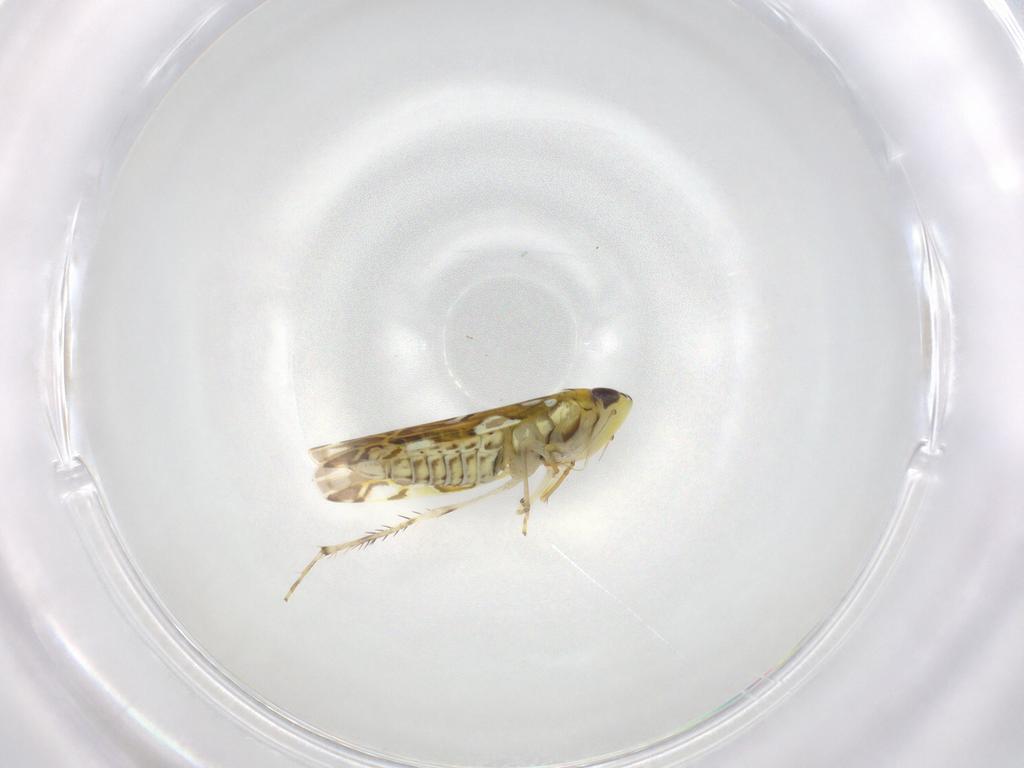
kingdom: Animalia
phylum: Arthropoda
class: Insecta
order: Hemiptera
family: Cicadellidae
